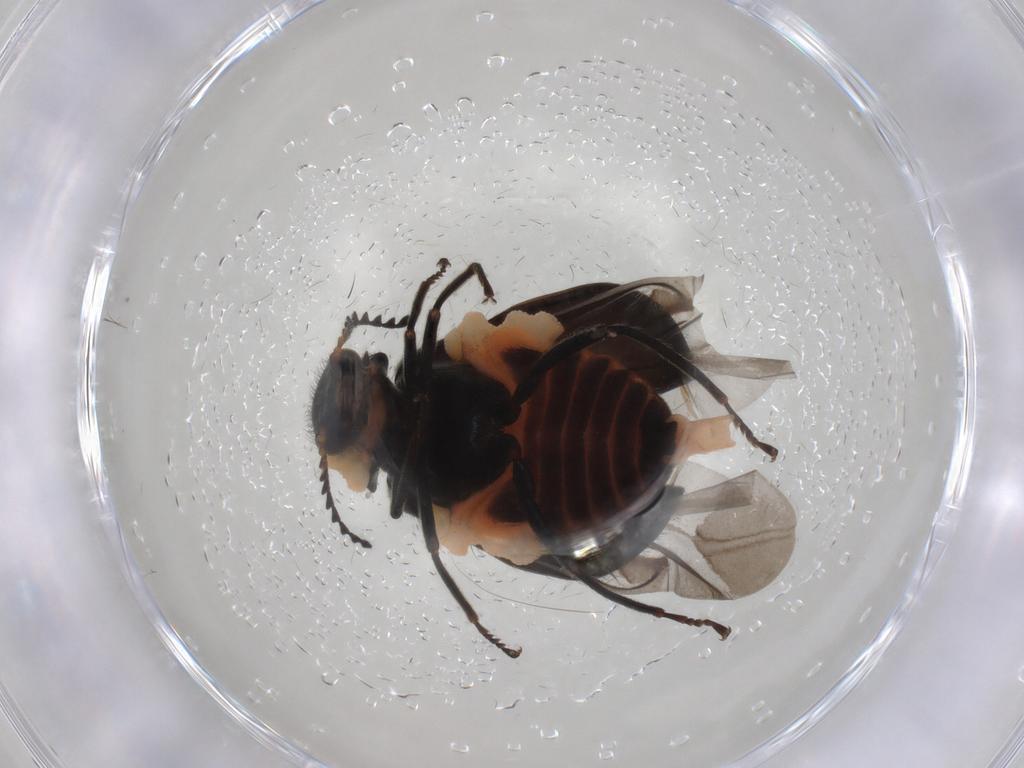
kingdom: Animalia
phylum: Arthropoda
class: Insecta
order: Coleoptera
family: Melyridae
